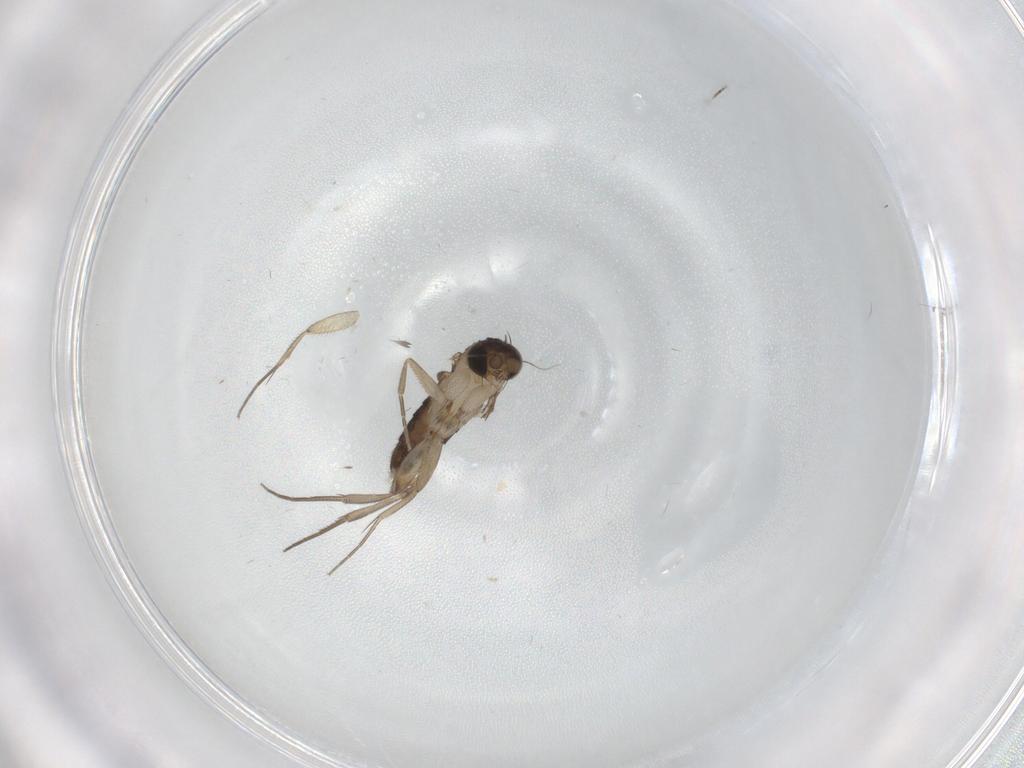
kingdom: Animalia
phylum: Arthropoda
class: Insecta
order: Diptera
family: Phoridae
